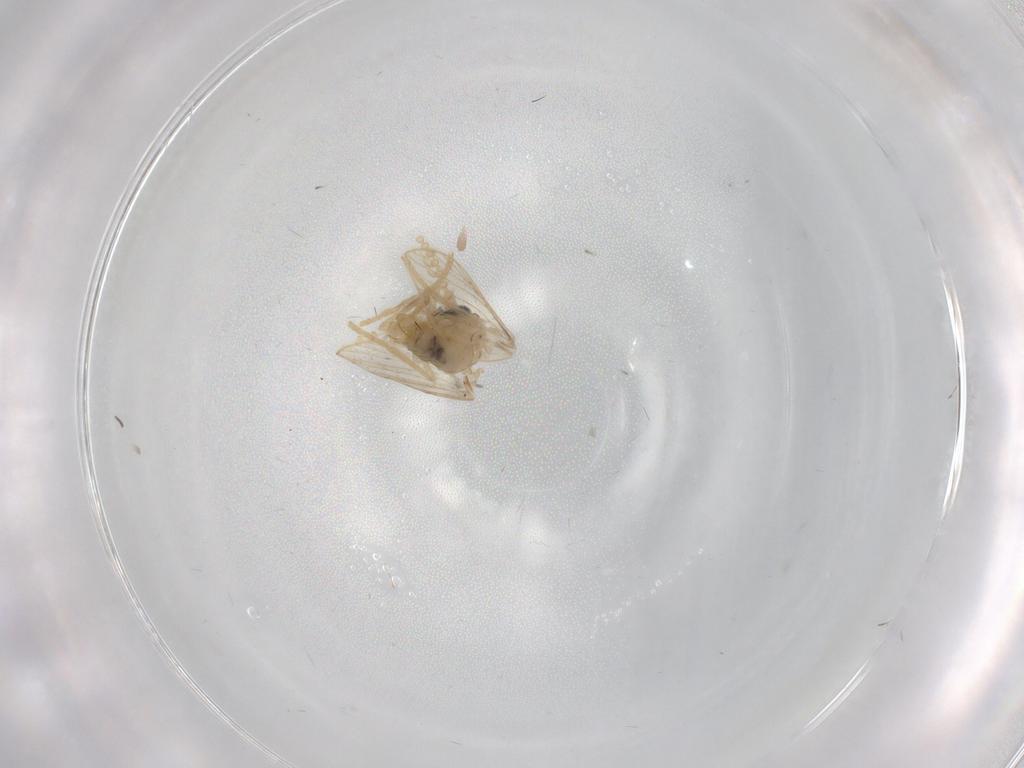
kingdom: Animalia
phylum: Arthropoda
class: Insecta
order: Diptera
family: Psychodidae
